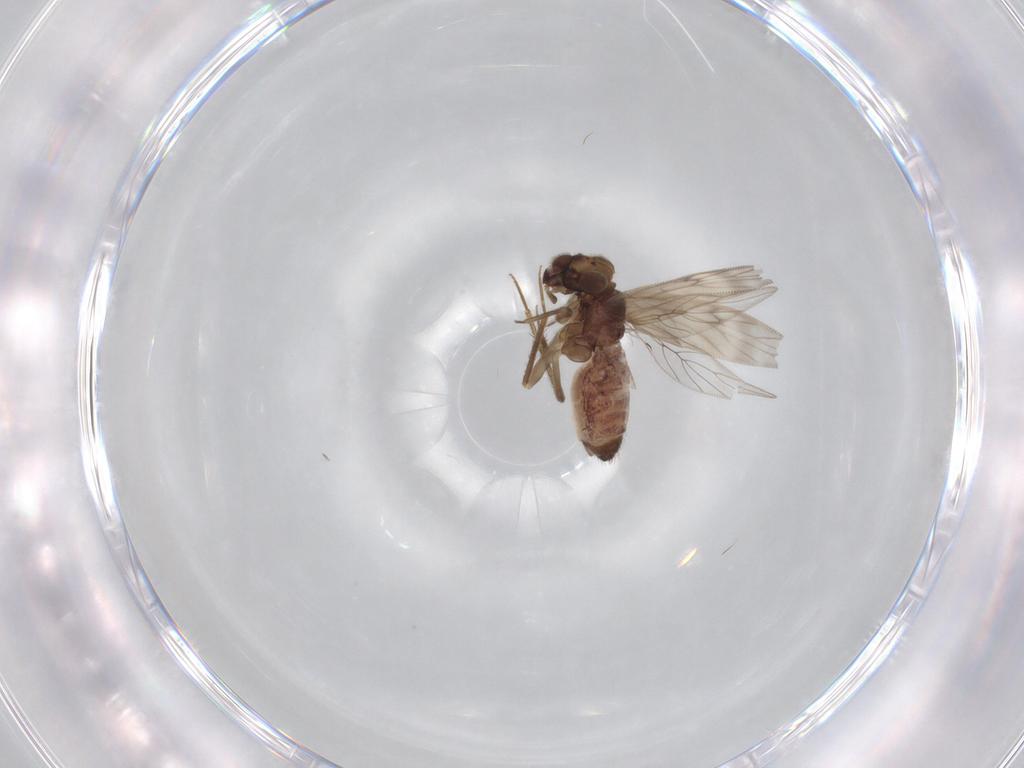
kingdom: Animalia
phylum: Arthropoda
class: Insecta
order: Psocodea
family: Lepidopsocidae
